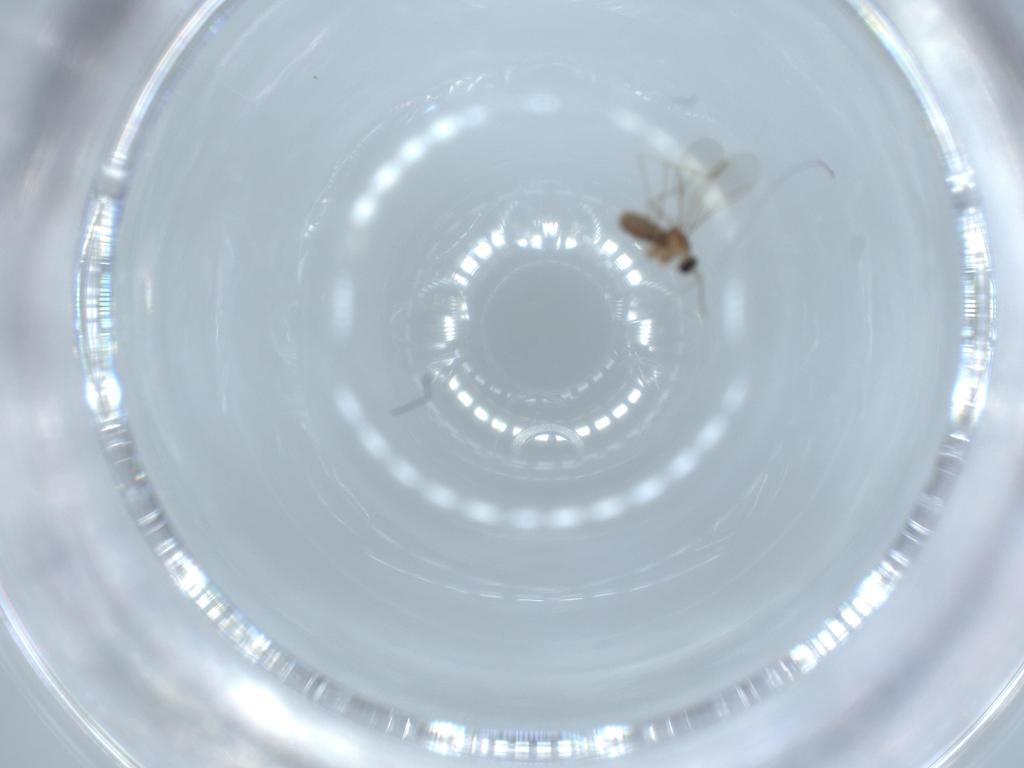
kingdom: Animalia
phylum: Arthropoda
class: Insecta
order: Diptera
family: Cecidomyiidae
